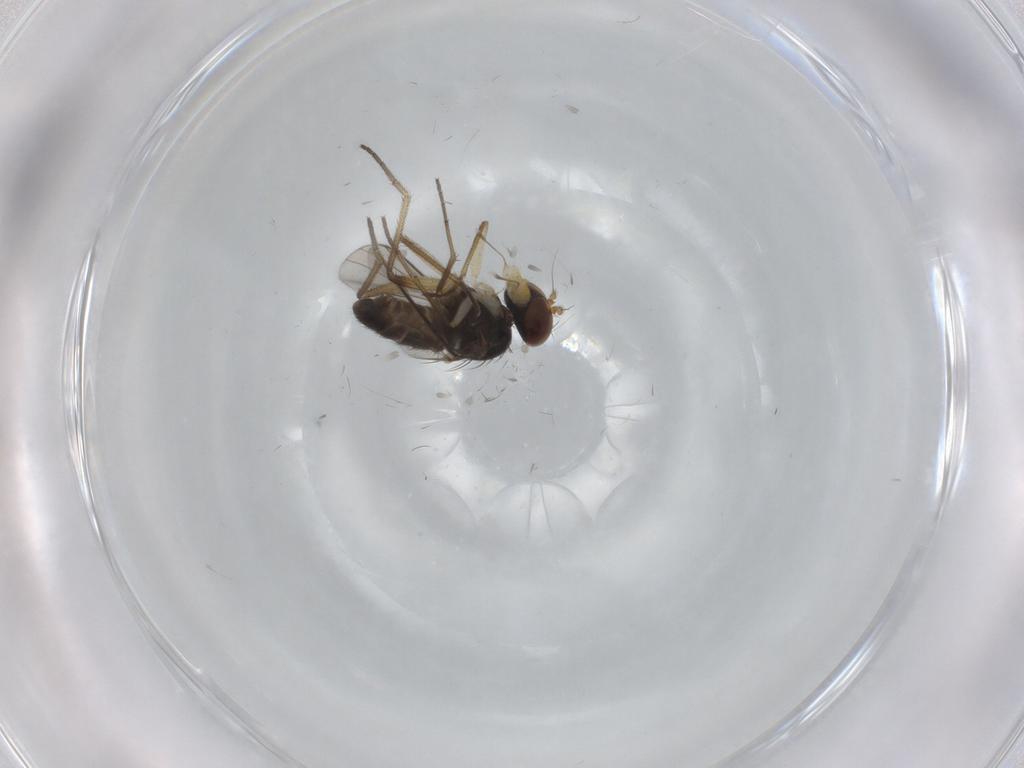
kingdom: Animalia
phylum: Arthropoda
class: Insecta
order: Diptera
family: Dolichopodidae
